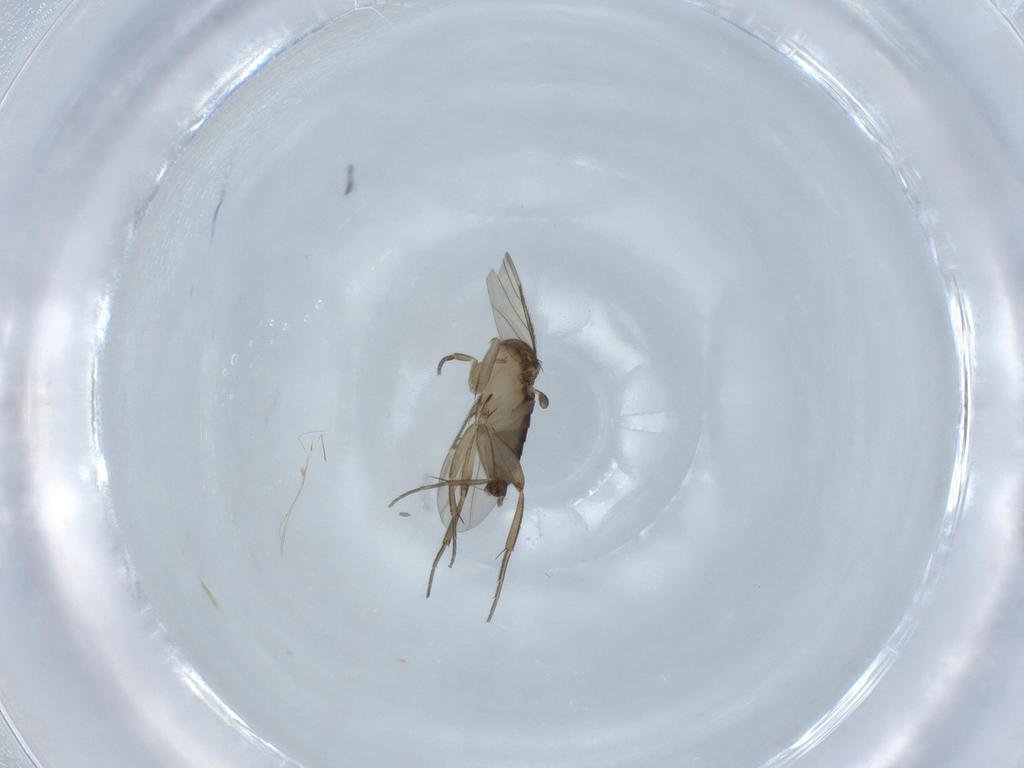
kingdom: Animalia
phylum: Arthropoda
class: Insecta
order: Diptera
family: Phoridae
